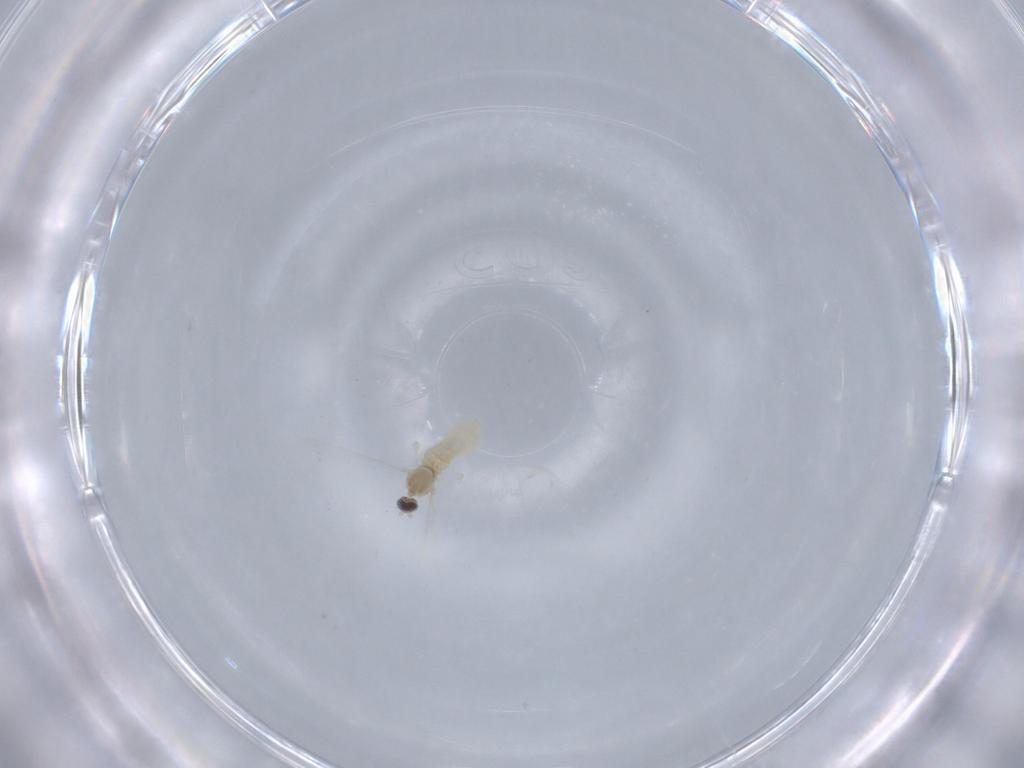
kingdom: Animalia
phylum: Arthropoda
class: Insecta
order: Diptera
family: Cecidomyiidae
